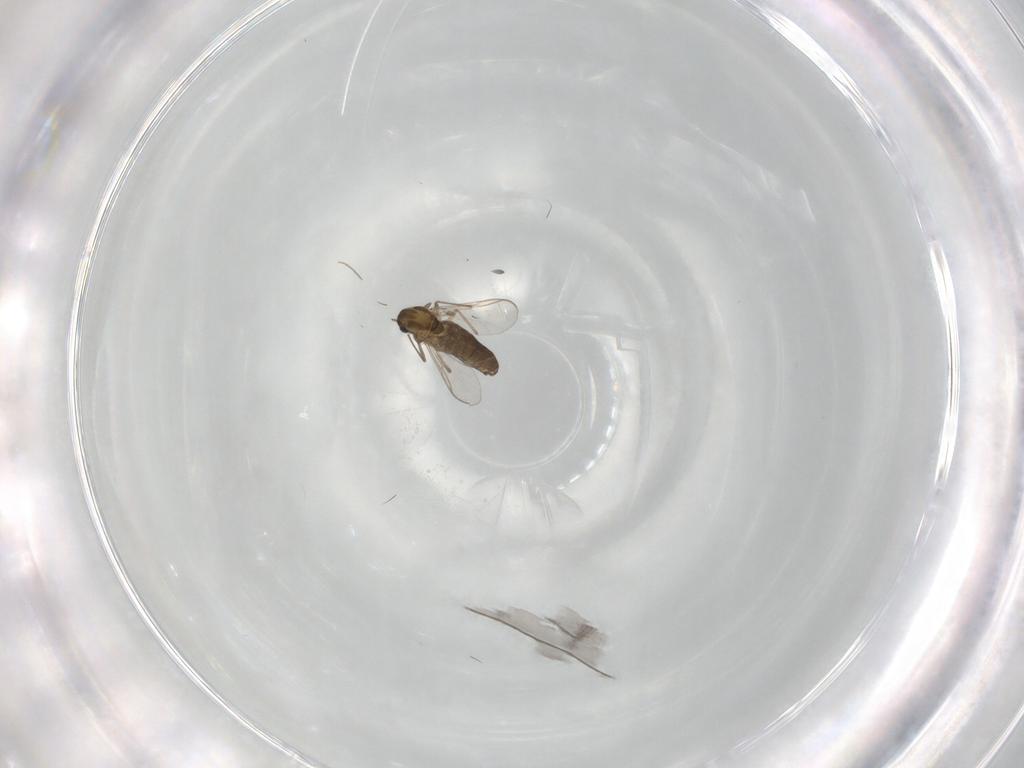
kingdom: Animalia
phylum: Arthropoda
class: Insecta
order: Diptera
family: Chironomidae
